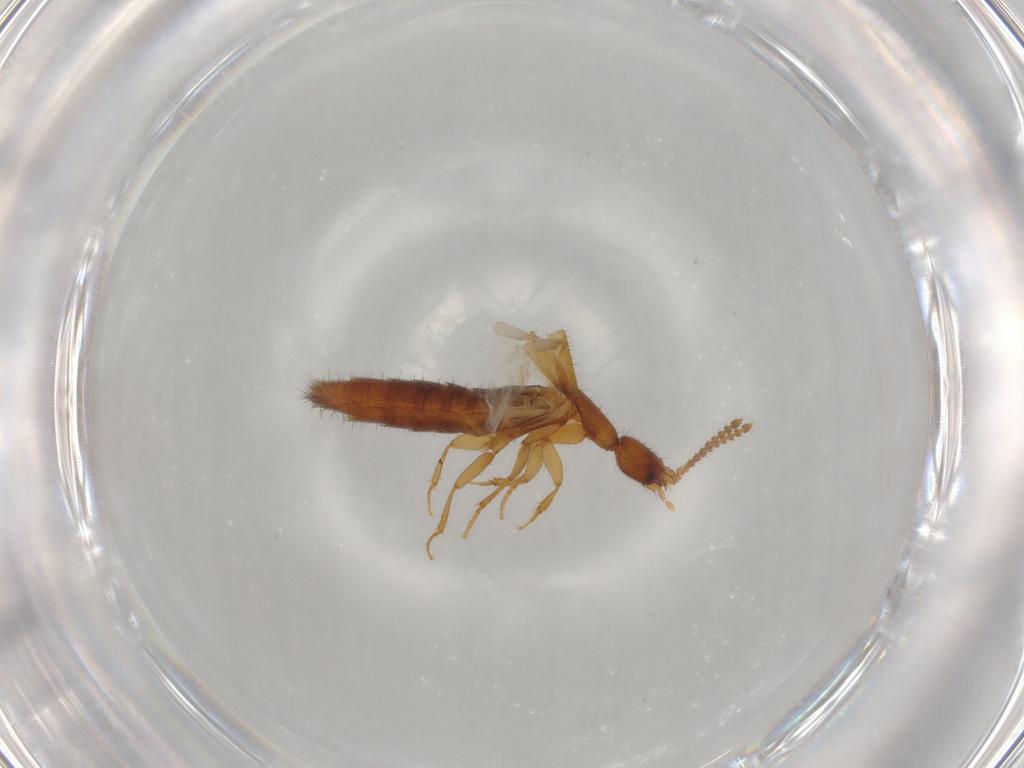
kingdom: Animalia
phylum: Arthropoda
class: Insecta
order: Coleoptera
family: Staphylinidae
